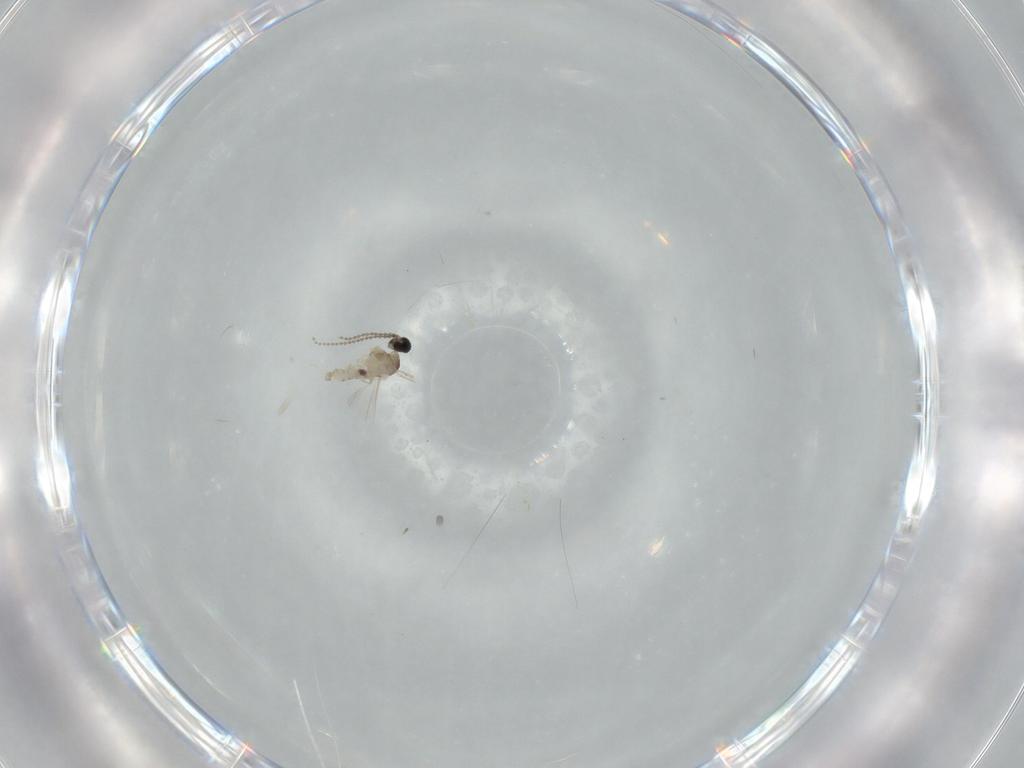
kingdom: Animalia
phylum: Arthropoda
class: Insecta
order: Diptera
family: Cecidomyiidae
